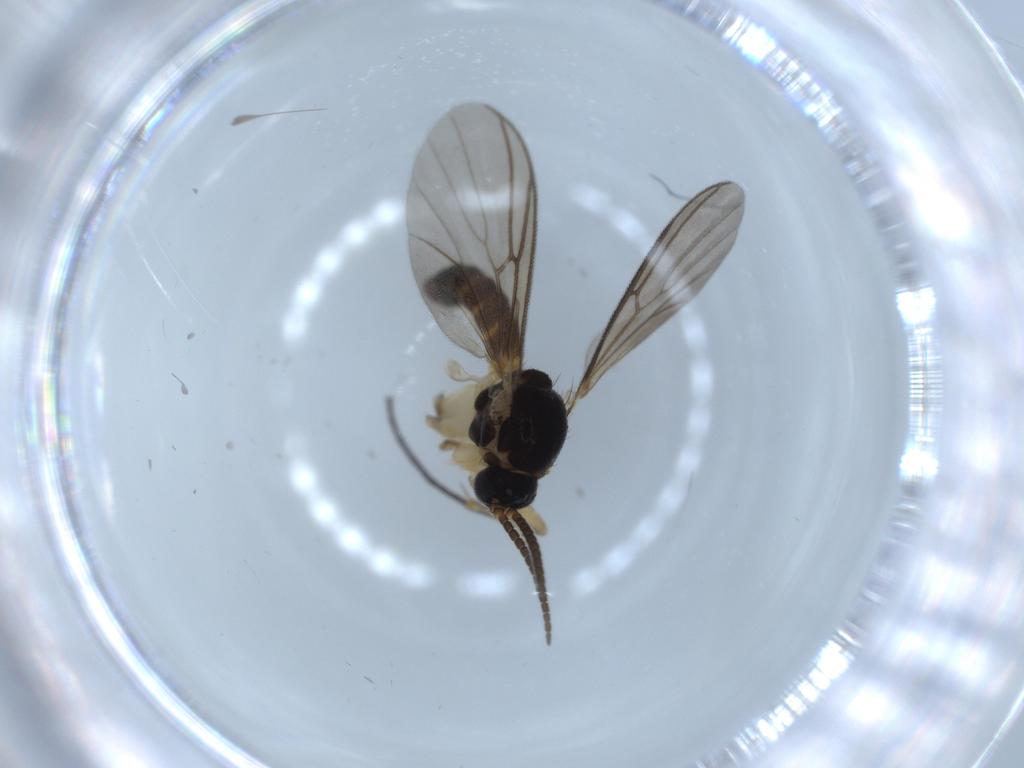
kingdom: Animalia
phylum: Arthropoda
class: Insecta
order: Diptera
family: Mycetophilidae
